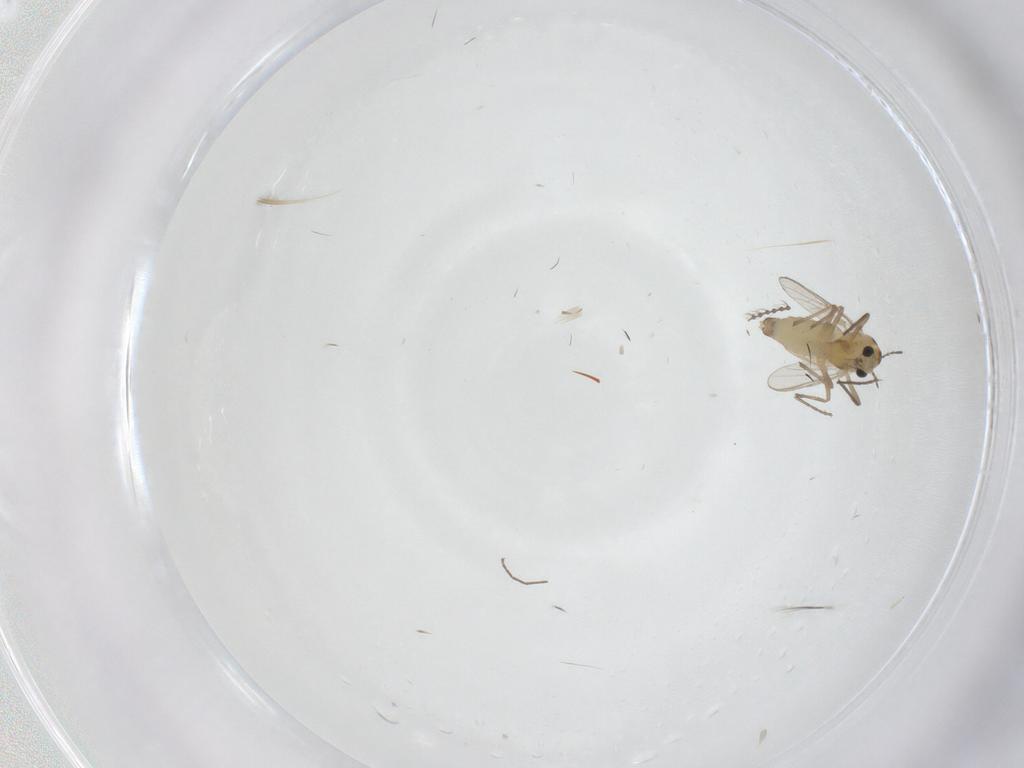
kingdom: Animalia
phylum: Arthropoda
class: Insecta
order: Diptera
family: Chironomidae
